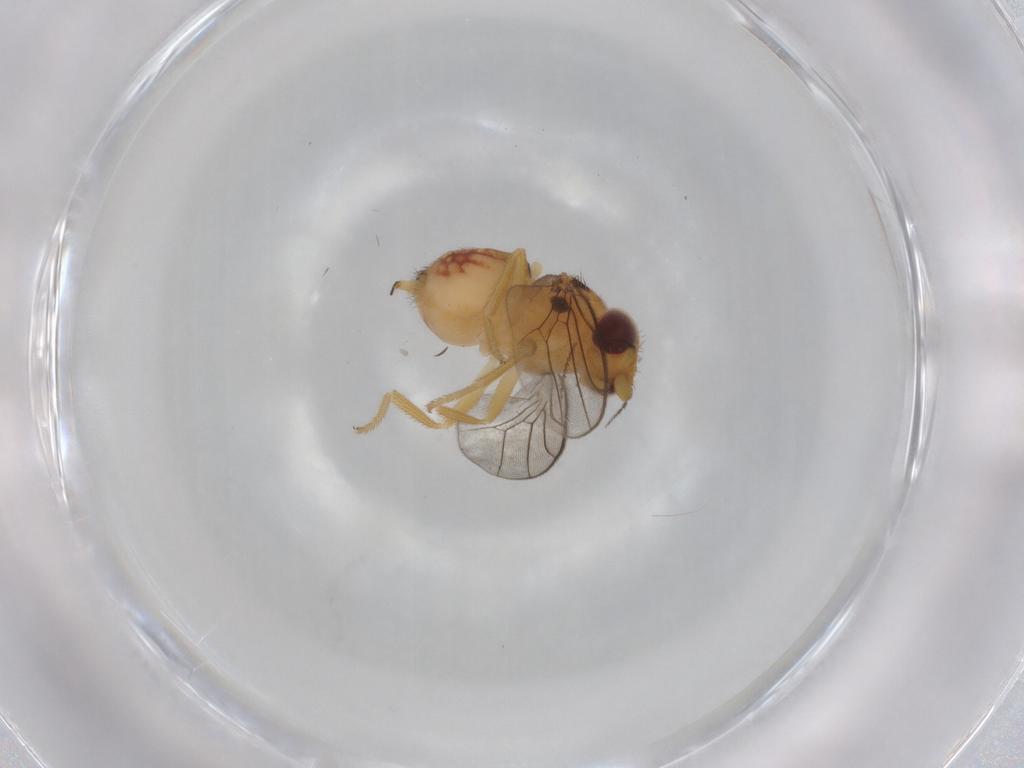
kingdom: Animalia
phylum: Arthropoda
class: Insecta
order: Diptera
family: Chloropidae
